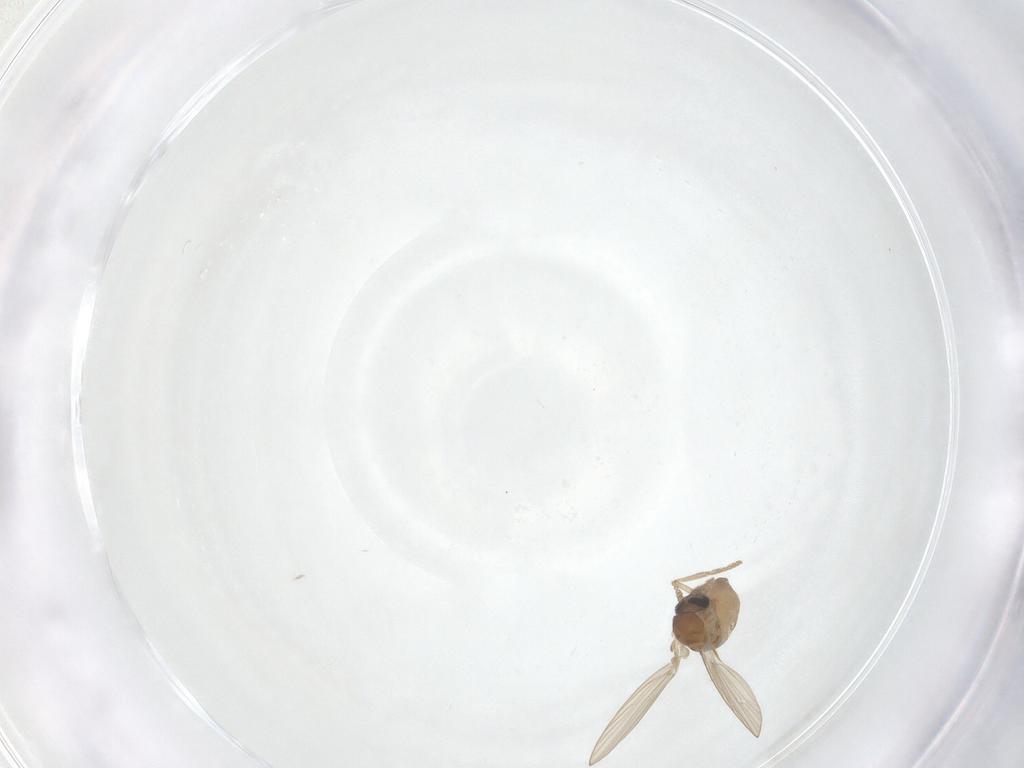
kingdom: Animalia
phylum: Arthropoda
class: Insecta
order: Diptera
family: Psychodidae
